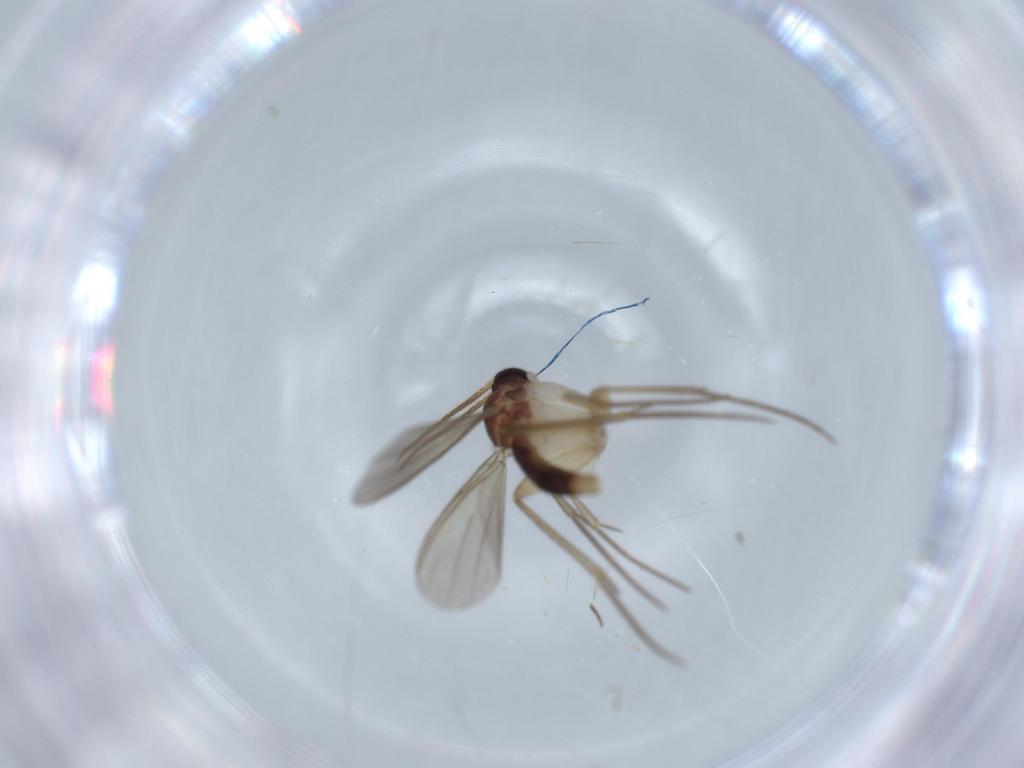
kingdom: Animalia
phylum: Arthropoda
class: Insecta
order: Diptera
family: Mycetophilidae
